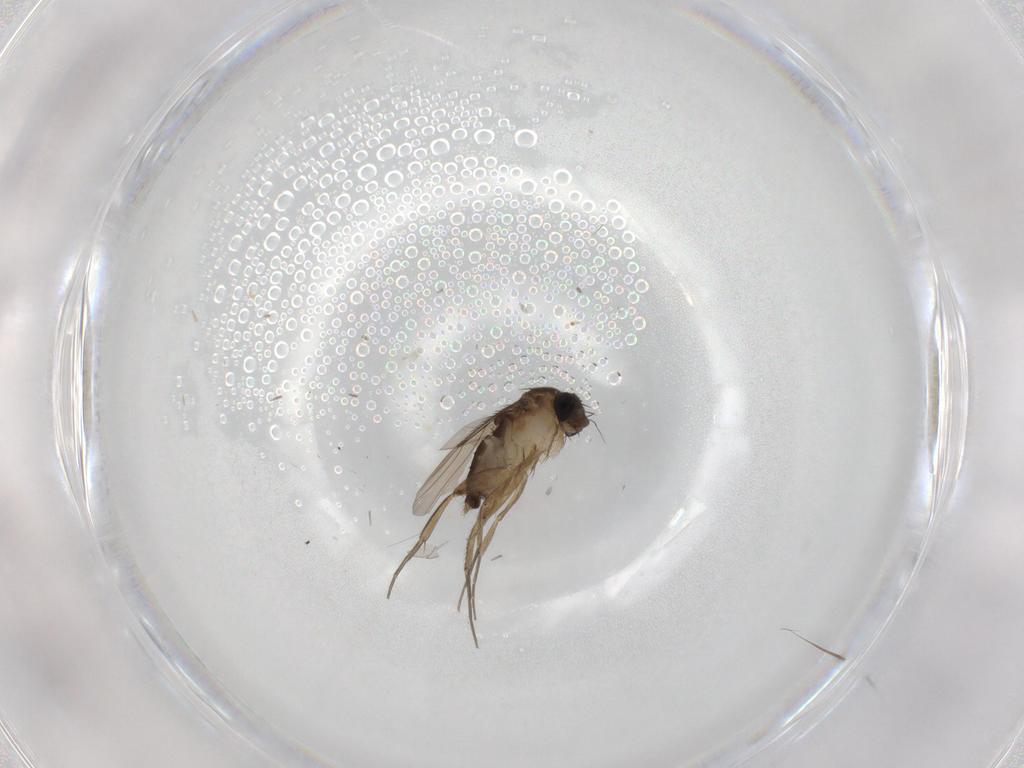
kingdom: Animalia
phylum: Arthropoda
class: Insecta
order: Diptera
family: Phoridae
